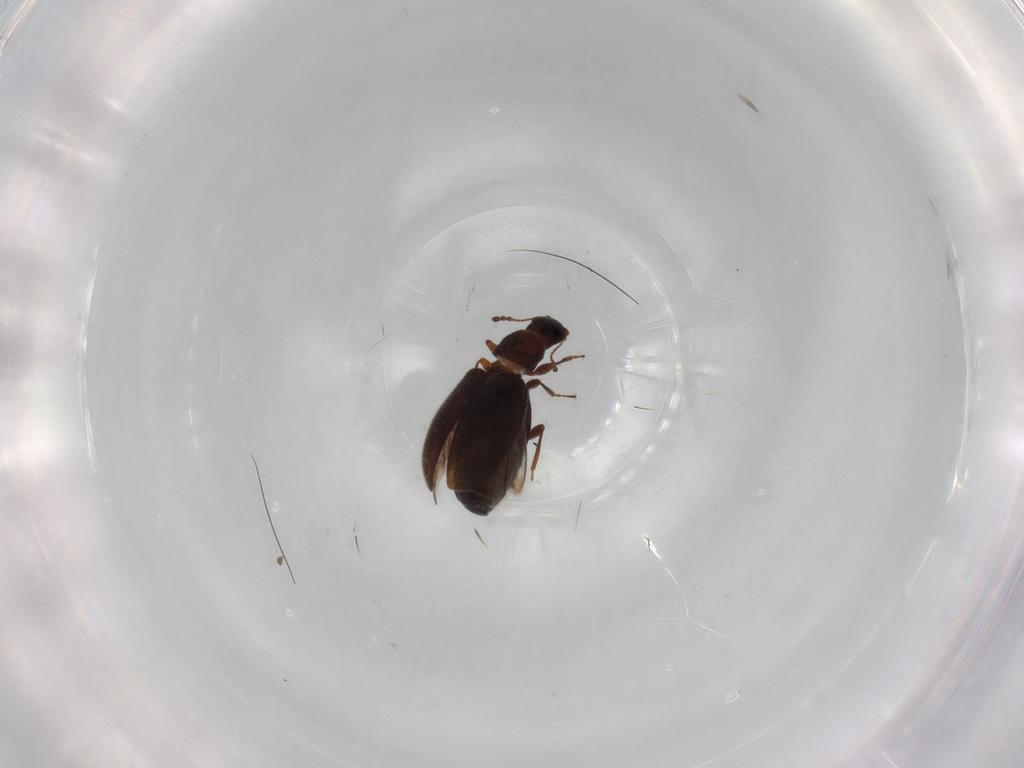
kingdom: Animalia
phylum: Arthropoda
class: Insecta
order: Coleoptera
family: Latridiidae
